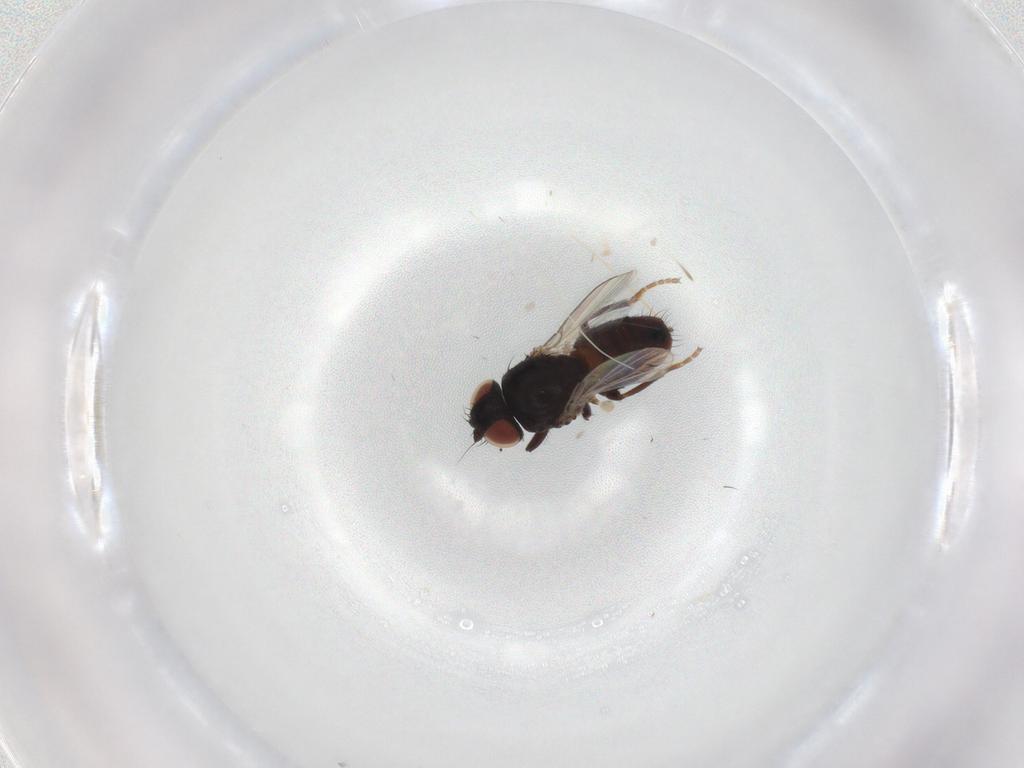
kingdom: Animalia
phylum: Arthropoda
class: Insecta
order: Diptera
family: Milichiidae
